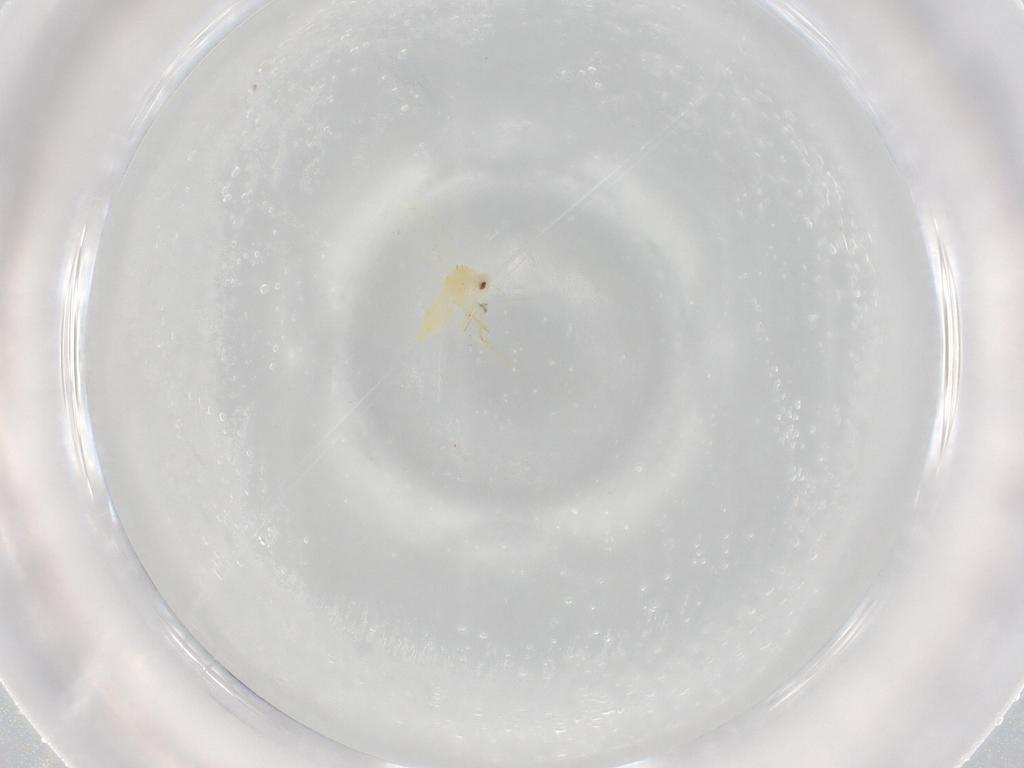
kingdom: Animalia
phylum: Arthropoda
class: Insecta
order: Hemiptera
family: Aleyrodidae
